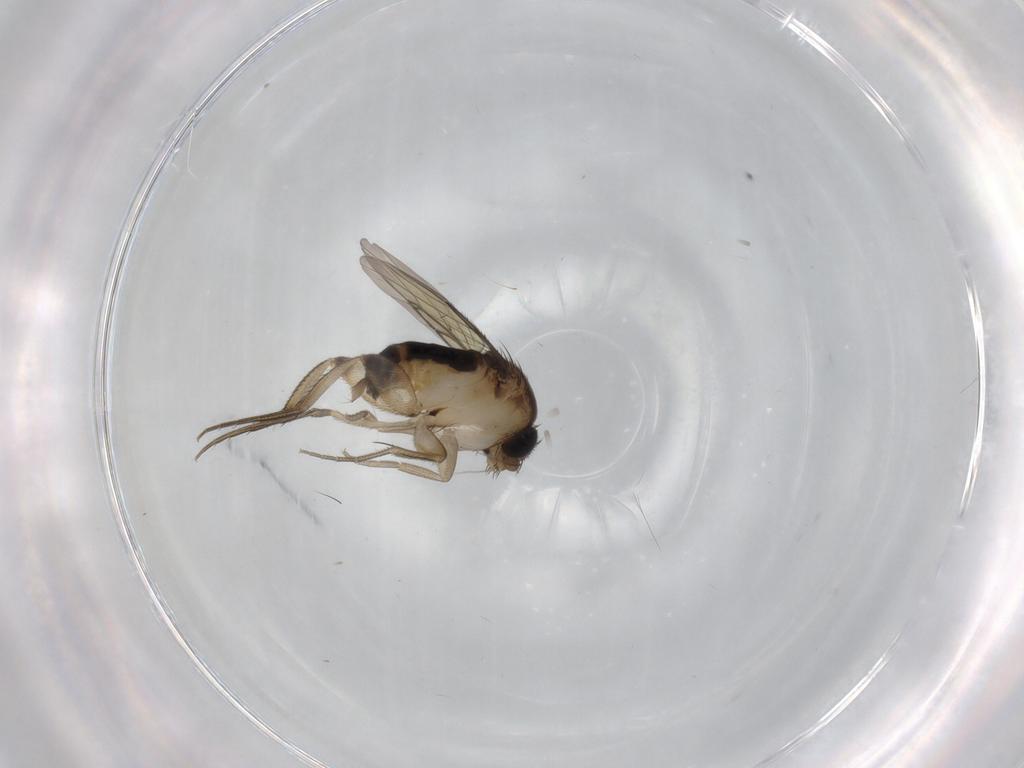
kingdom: Animalia
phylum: Arthropoda
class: Insecta
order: Diptera
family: Phoridae
